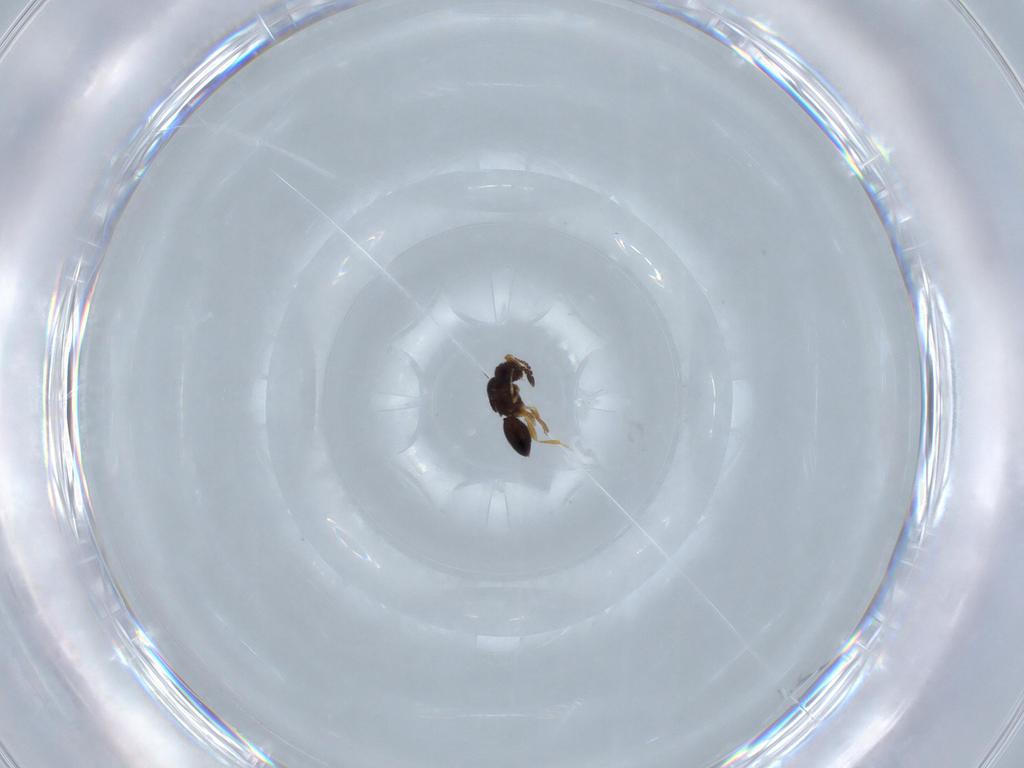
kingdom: Animalia
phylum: Arthropoda
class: Insecta
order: Hymenoptera
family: Ceraphronidae
